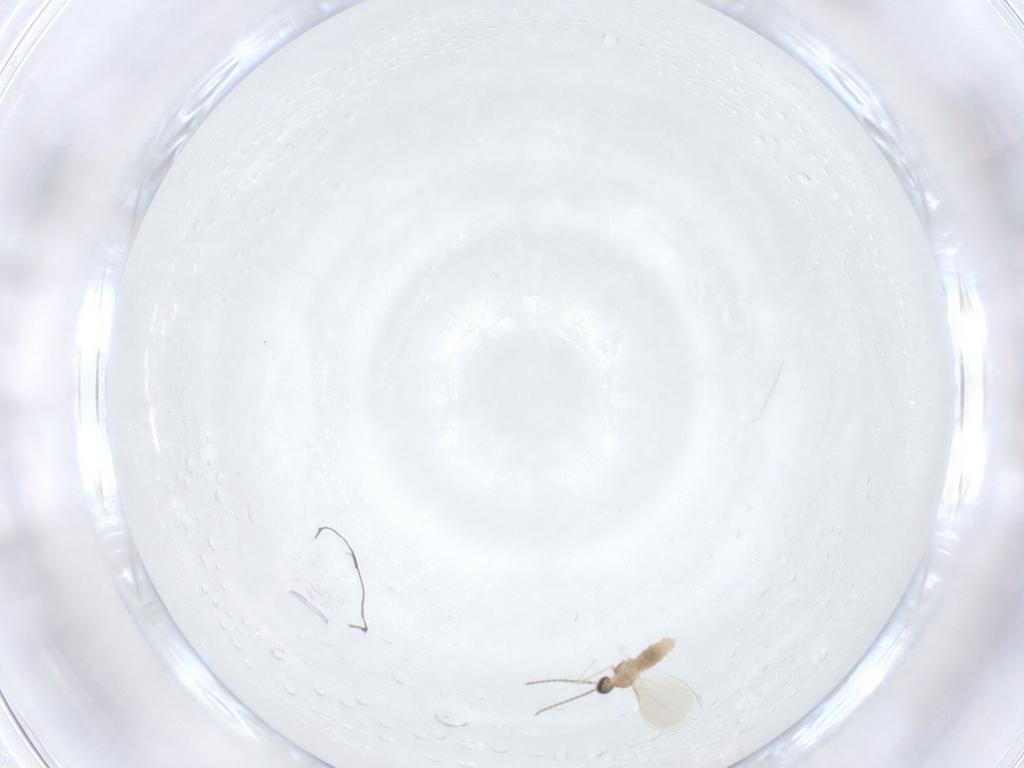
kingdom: Animalia
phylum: Arthropoda
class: Insecta
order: Diptera
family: Cecidomyiidae
